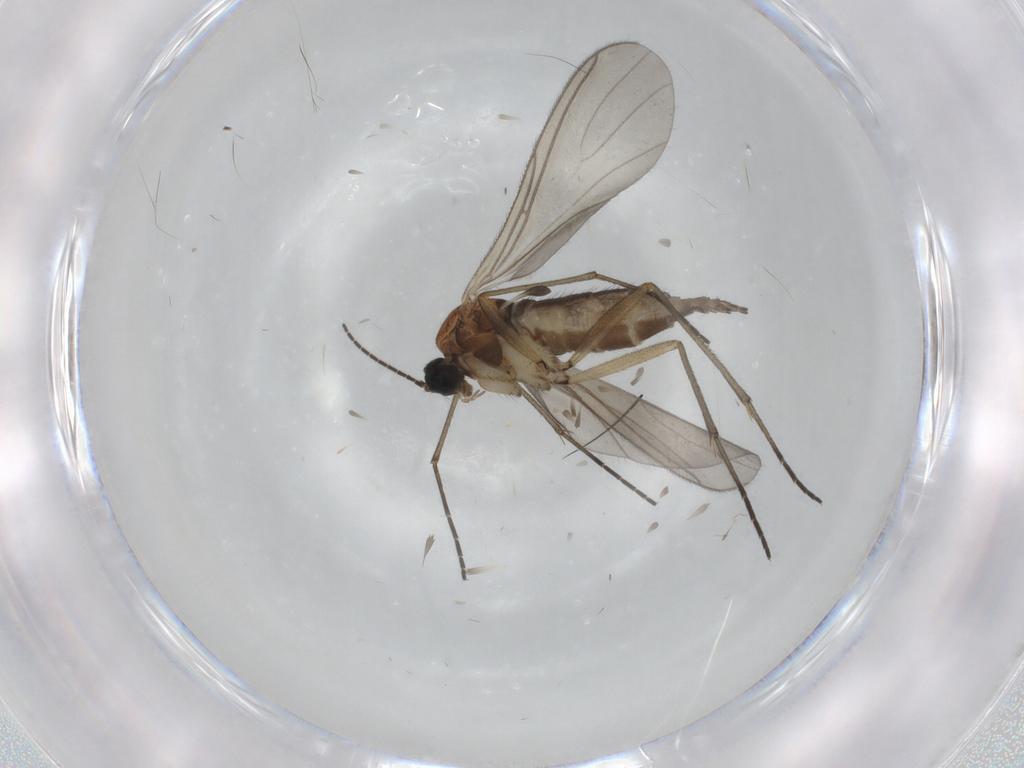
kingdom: Animalia
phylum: Arthropoda
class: Insecta
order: Diptera
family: Sciaridae
